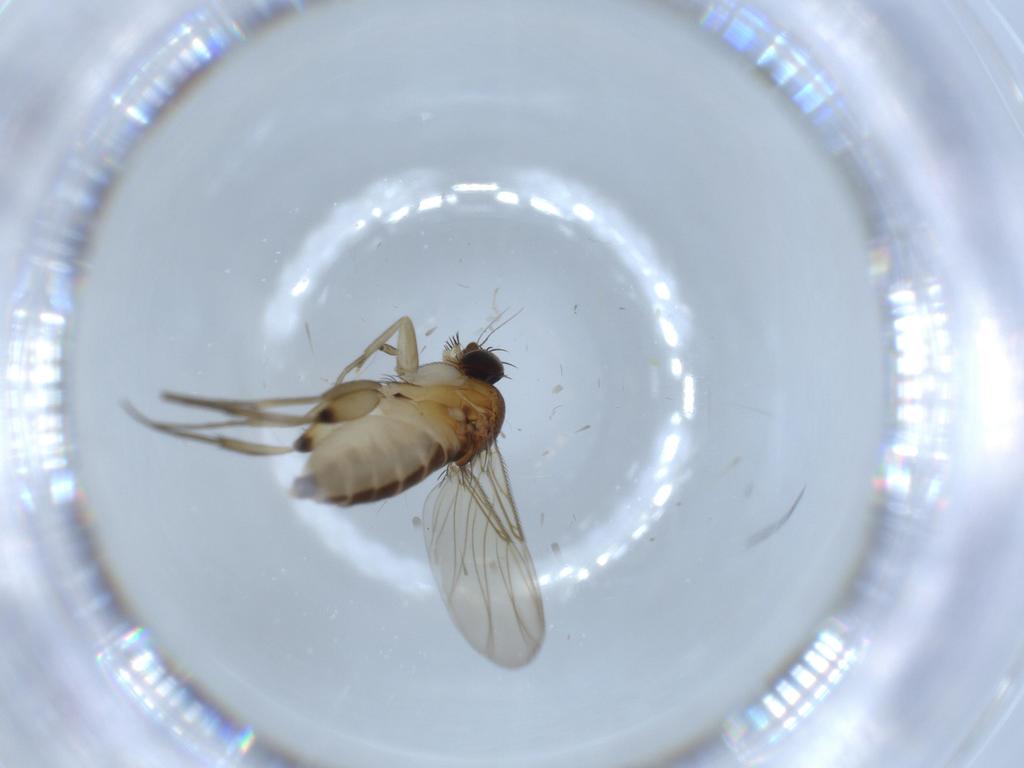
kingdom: Animalia
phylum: Arthropoda
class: Insecta
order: Diptera
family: Phoridae
